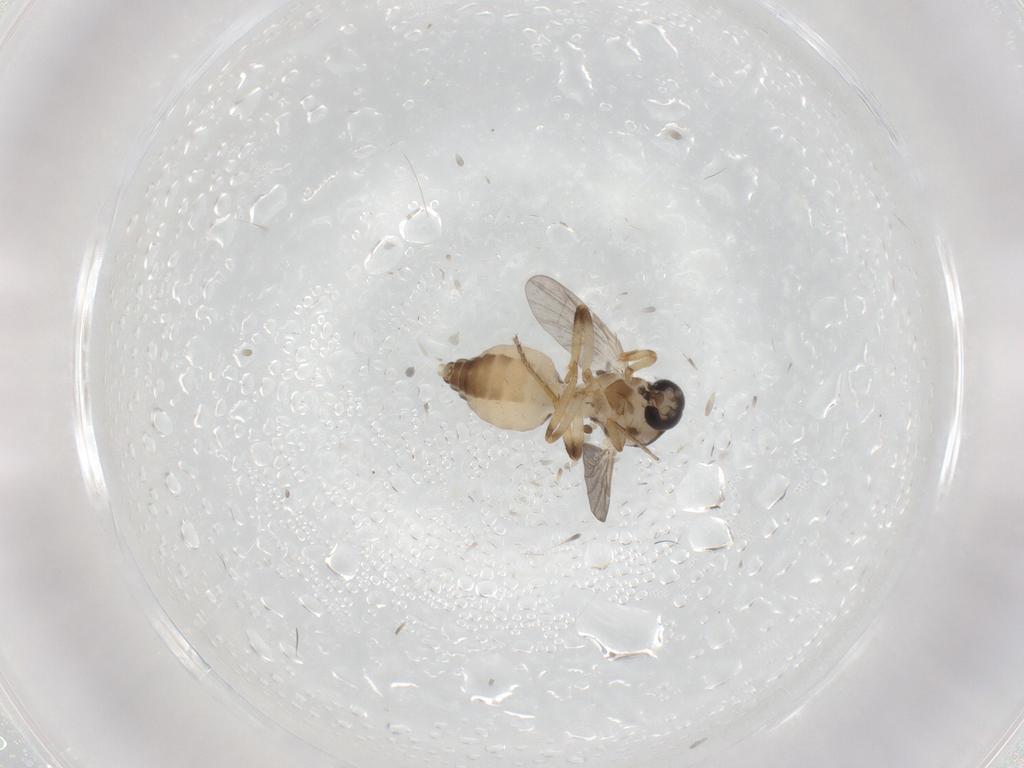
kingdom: Animalia
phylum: Arthropoda
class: Insecta
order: Diptera
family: Ceratopogonidae
